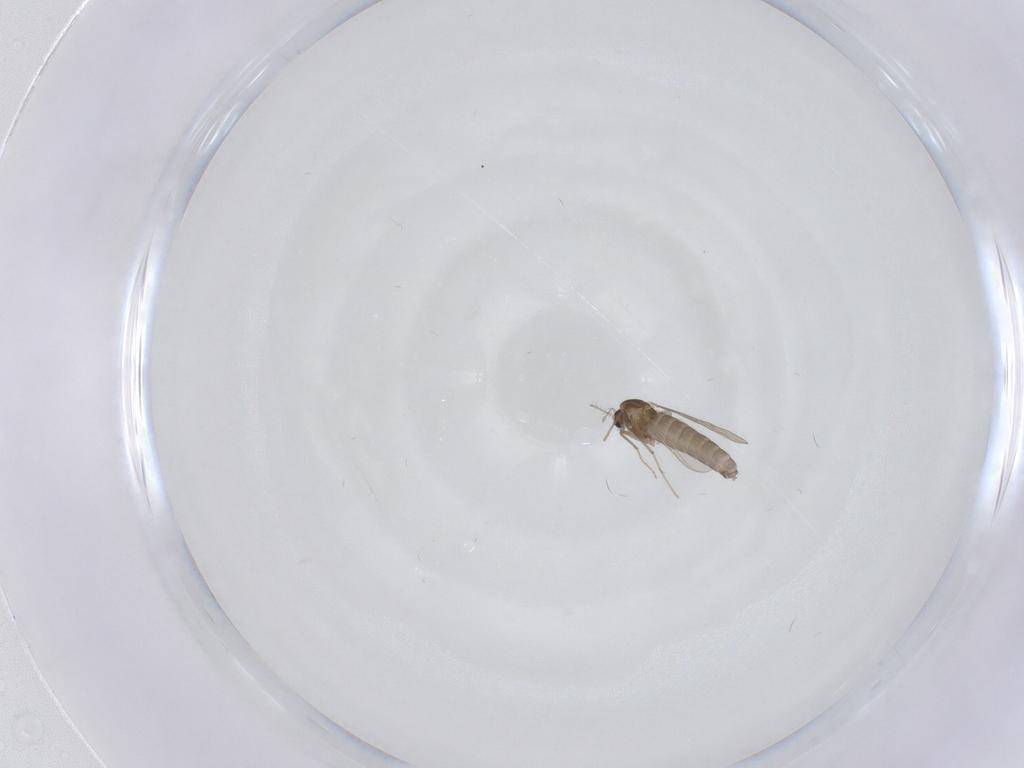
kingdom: Animalia
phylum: Arthropoda
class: Insecta
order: Diptera
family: Chironomidae
